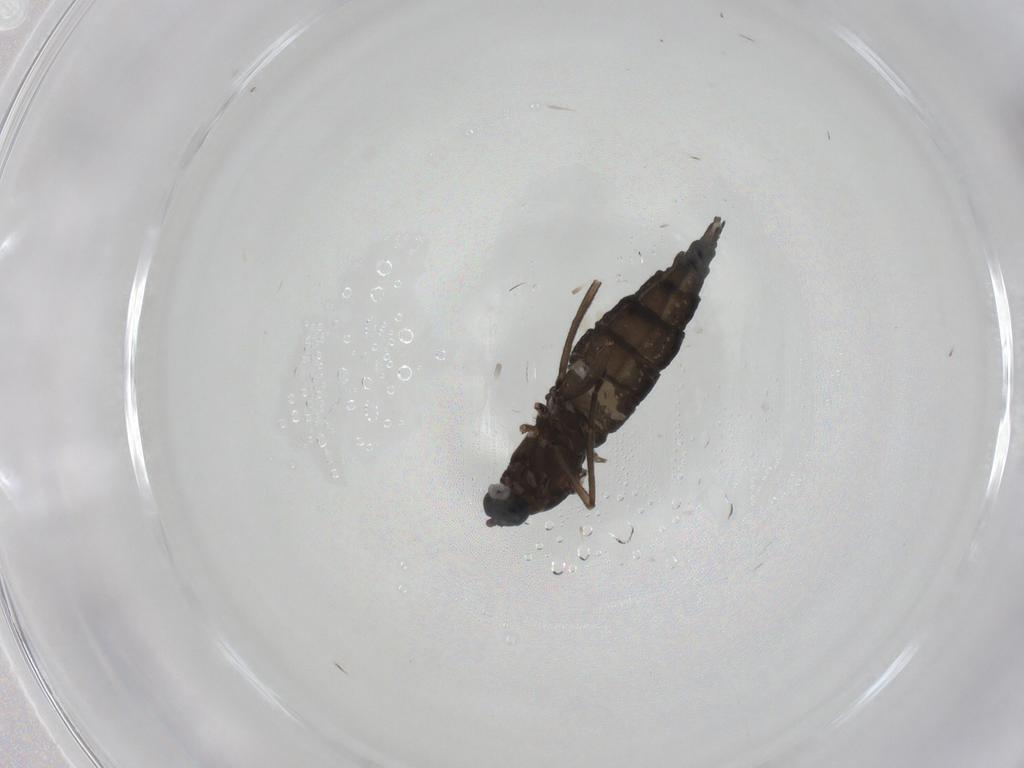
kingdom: Animalia
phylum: Arthropoda
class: Insecta
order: Diptera
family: Sciaridae
